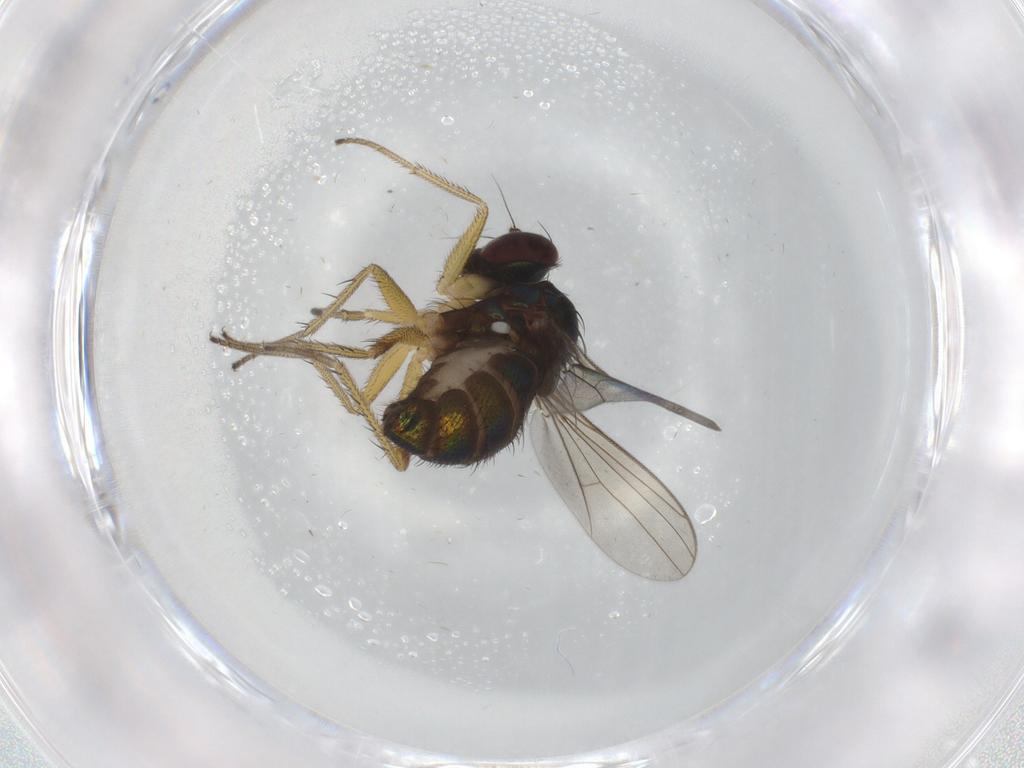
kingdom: Animalia
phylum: Arthropoda
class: Insecta
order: Diptera
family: Dolichopodidae
